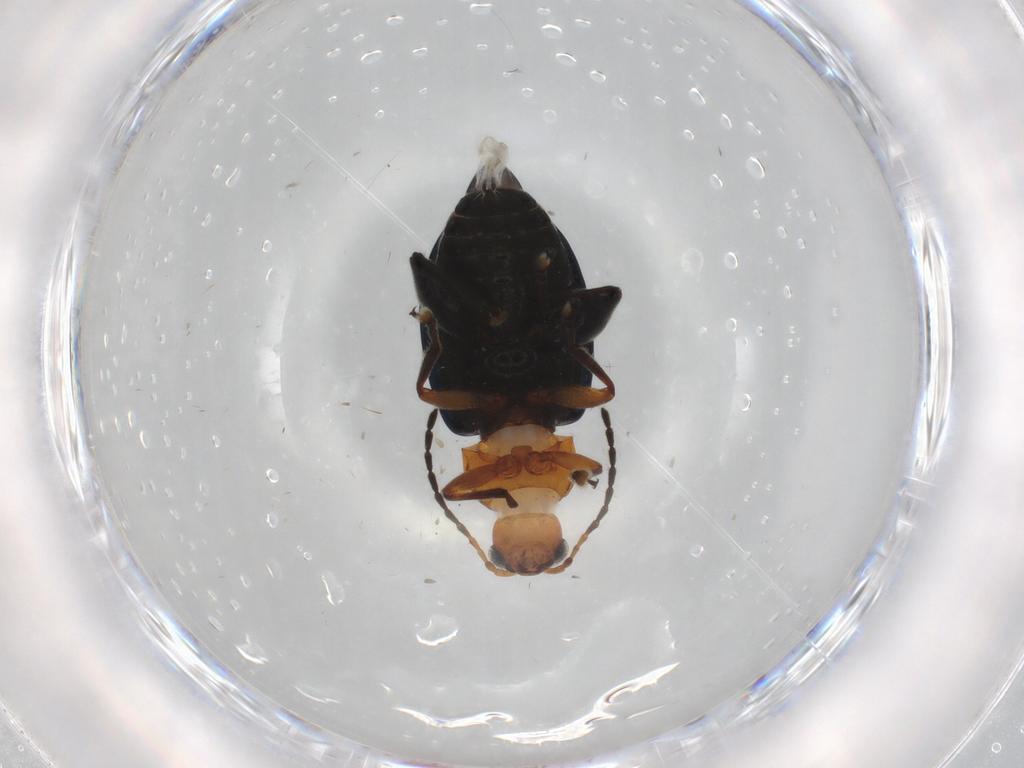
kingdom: Animalia
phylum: Arthropoda
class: Insecta
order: Coleoptera
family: Chrysomelidae
